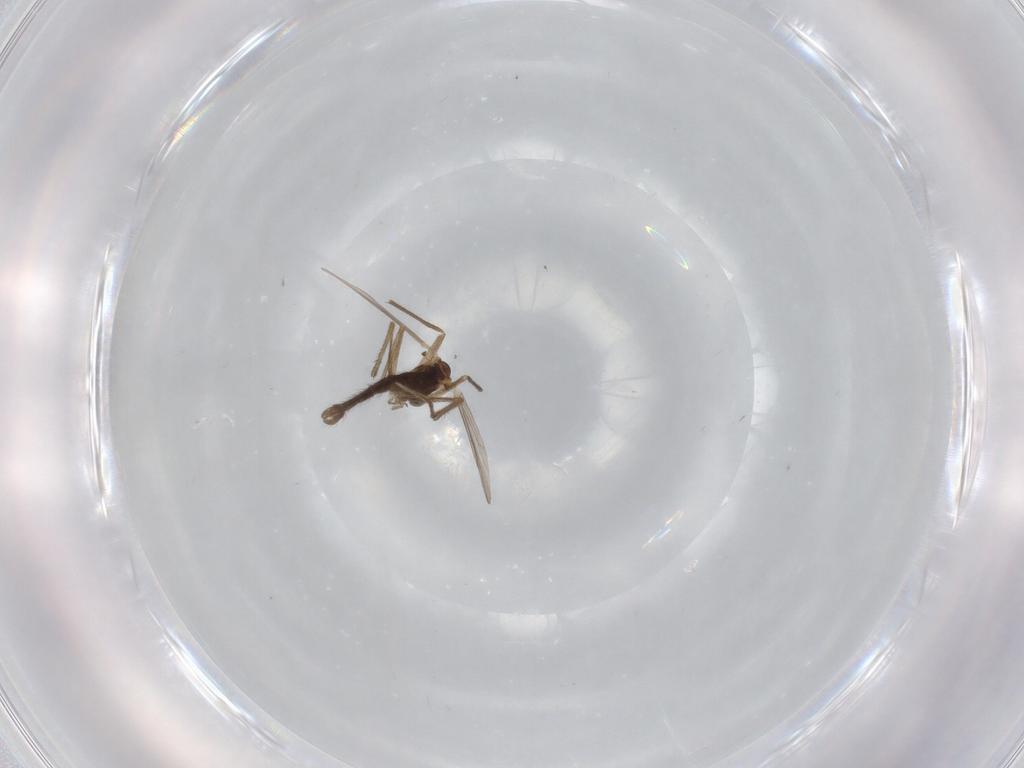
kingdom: Animalia
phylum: Arthropoda
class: Insecta
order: Diptera
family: Chironomidae
